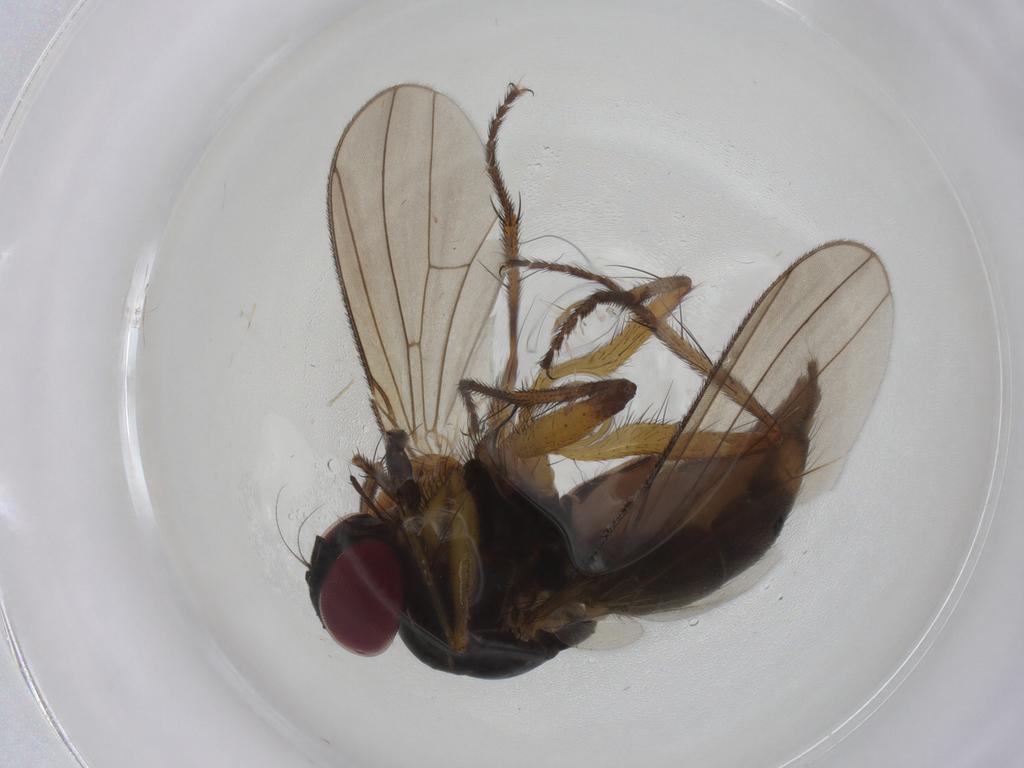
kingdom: Animalia
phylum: Arthropoda
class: Insecta
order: Diptera
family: Anthomyiidae
